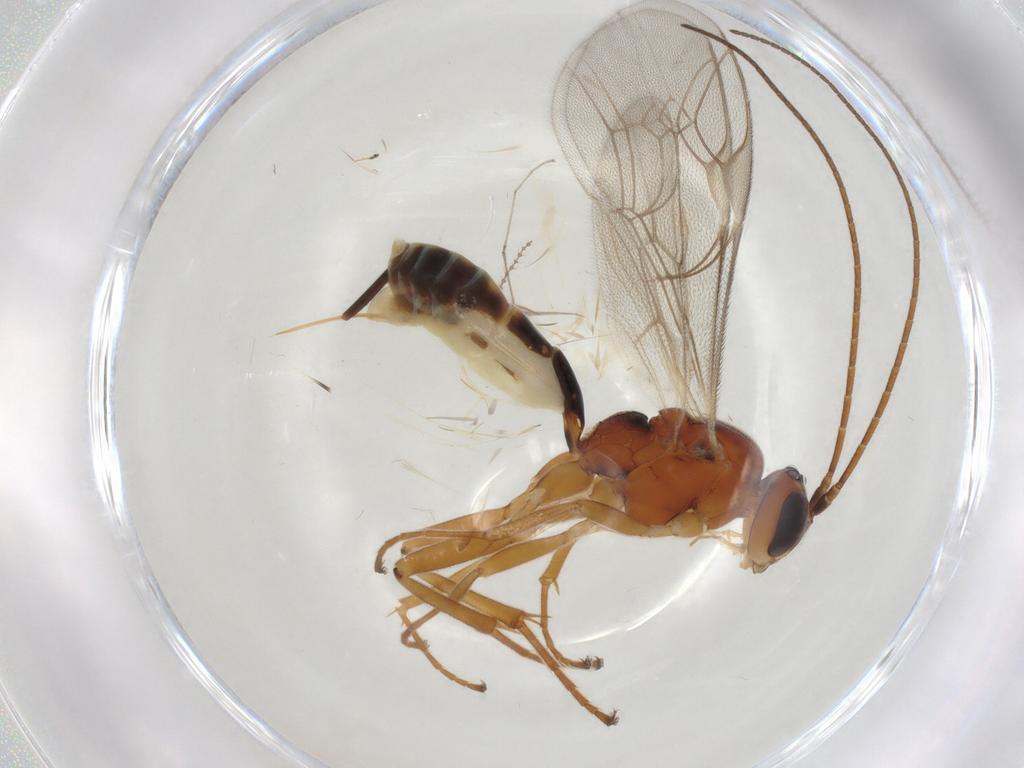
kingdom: Animalia
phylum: Arthropoda
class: Insecta
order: Hymenoptera
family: Ichneumonidae
